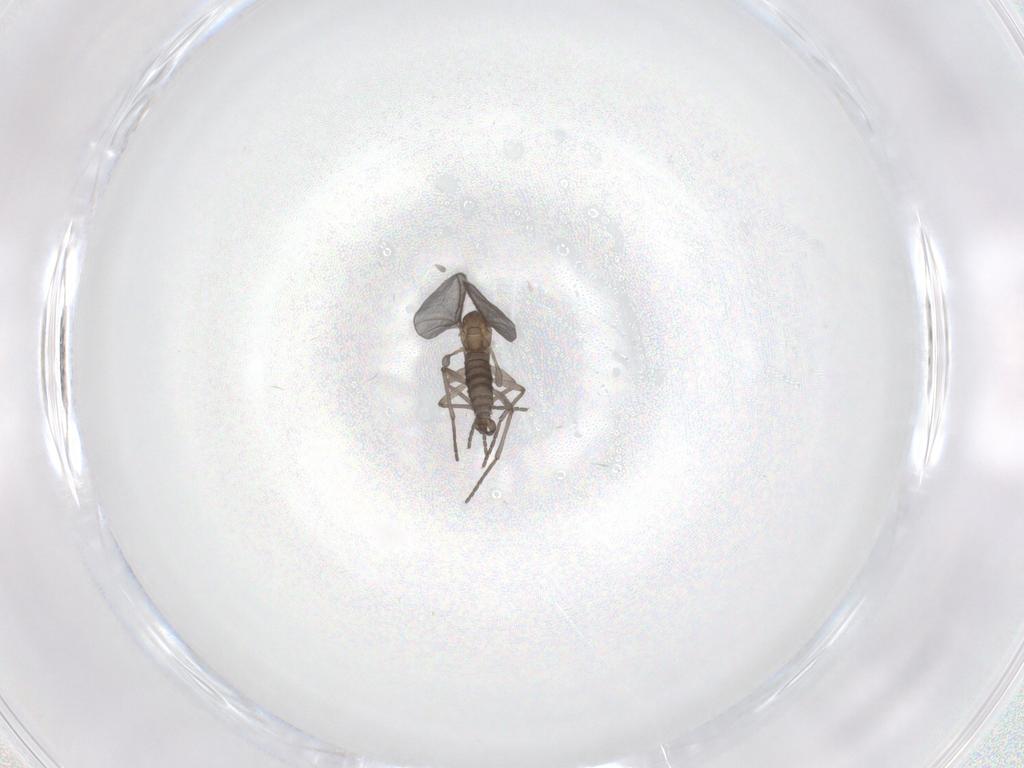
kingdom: Animalia
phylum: Arthropoda
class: Insecta
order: Diptera
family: Sciaridae
